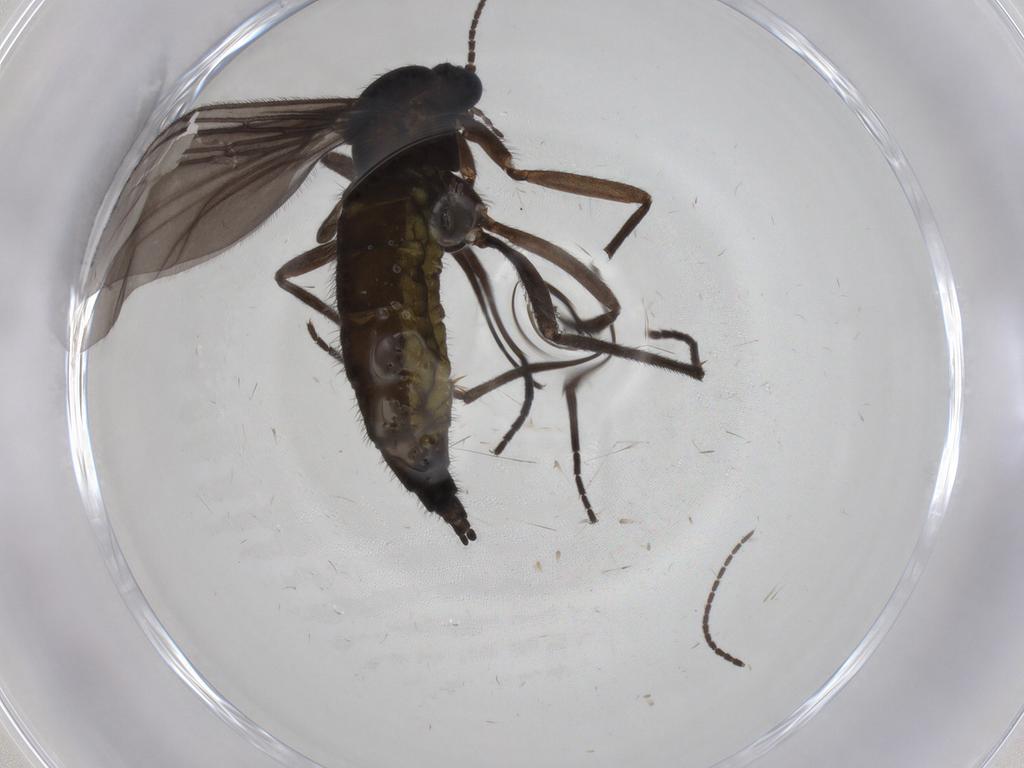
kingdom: Animalia
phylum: Arthropoda
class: Insecta
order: Diptera
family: Sciaridae
